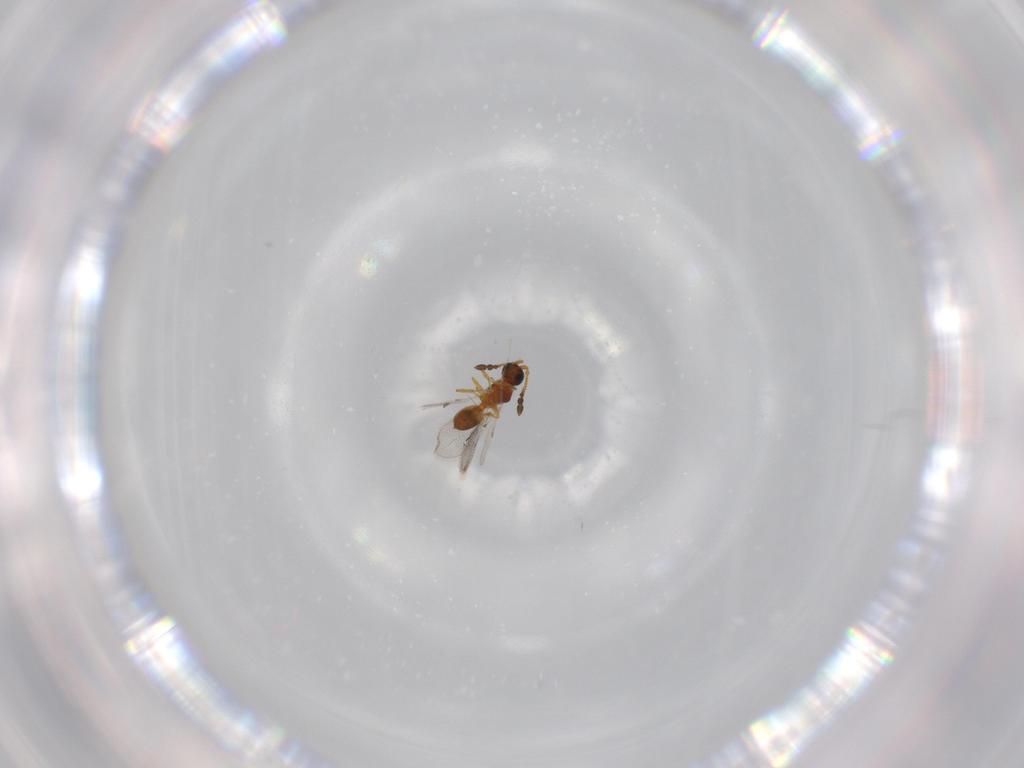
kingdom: Animalia
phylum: Arthropoda
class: Insecta
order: Hymenoptera
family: Diapriidae
